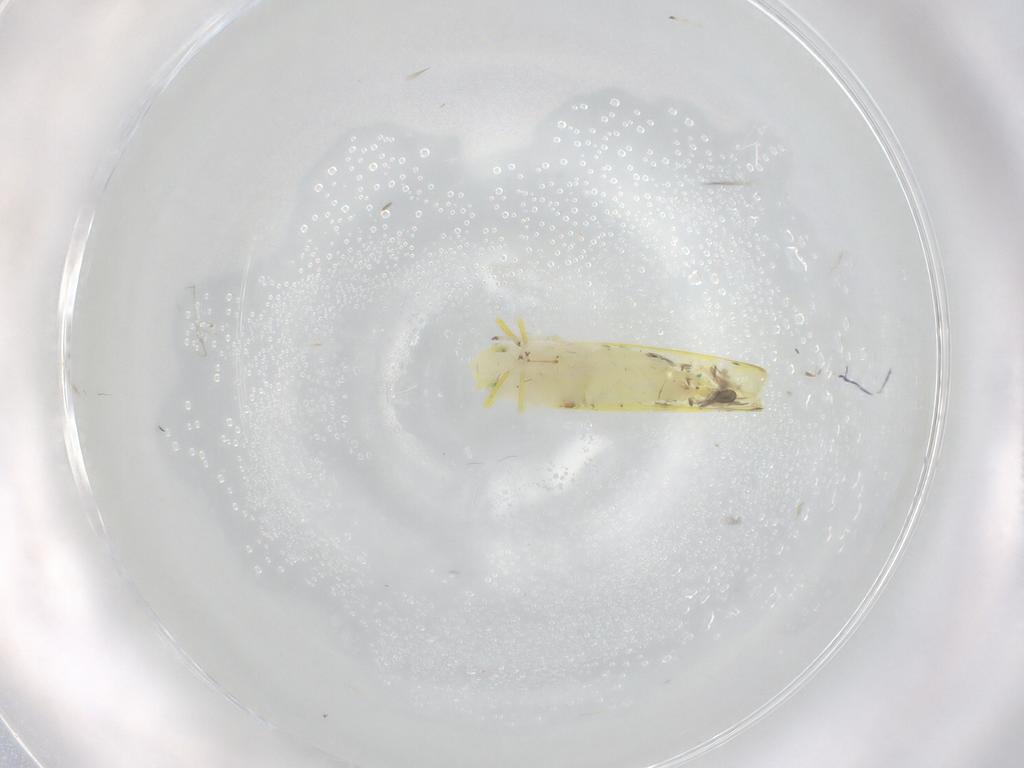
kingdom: Animalia
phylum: Arthropoda
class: Insecta
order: Hemiptera
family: Cicadellidae
